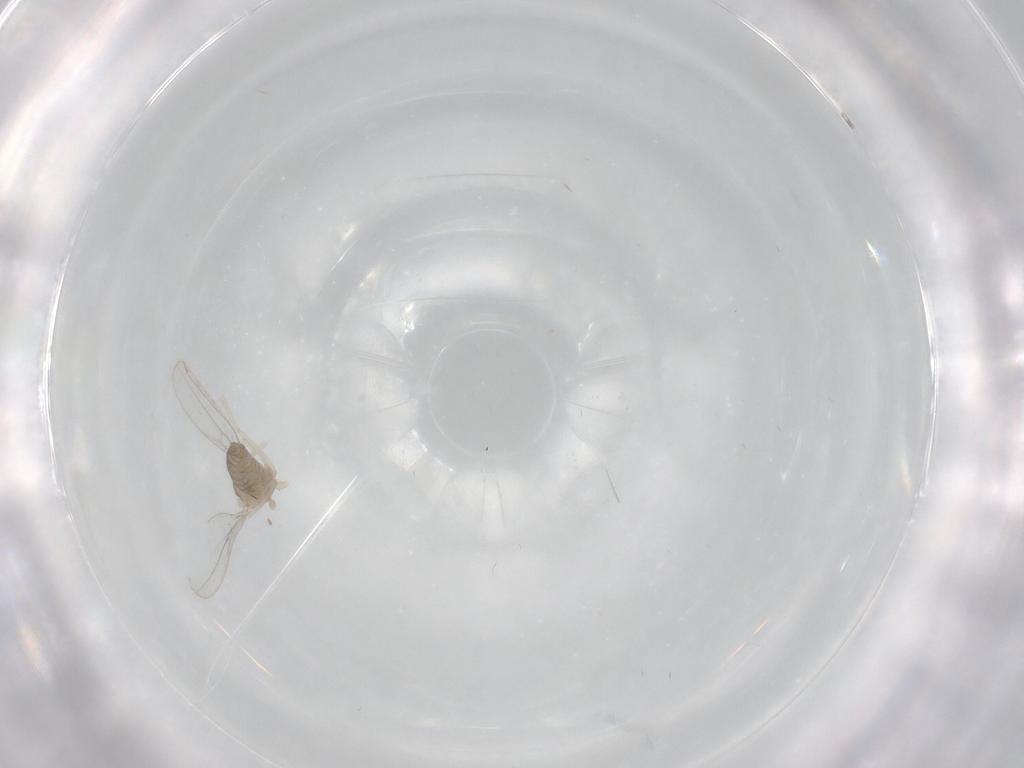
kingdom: Animalia
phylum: Arthropoda
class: Insecta
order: Diptera
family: Cecidomyiidae
